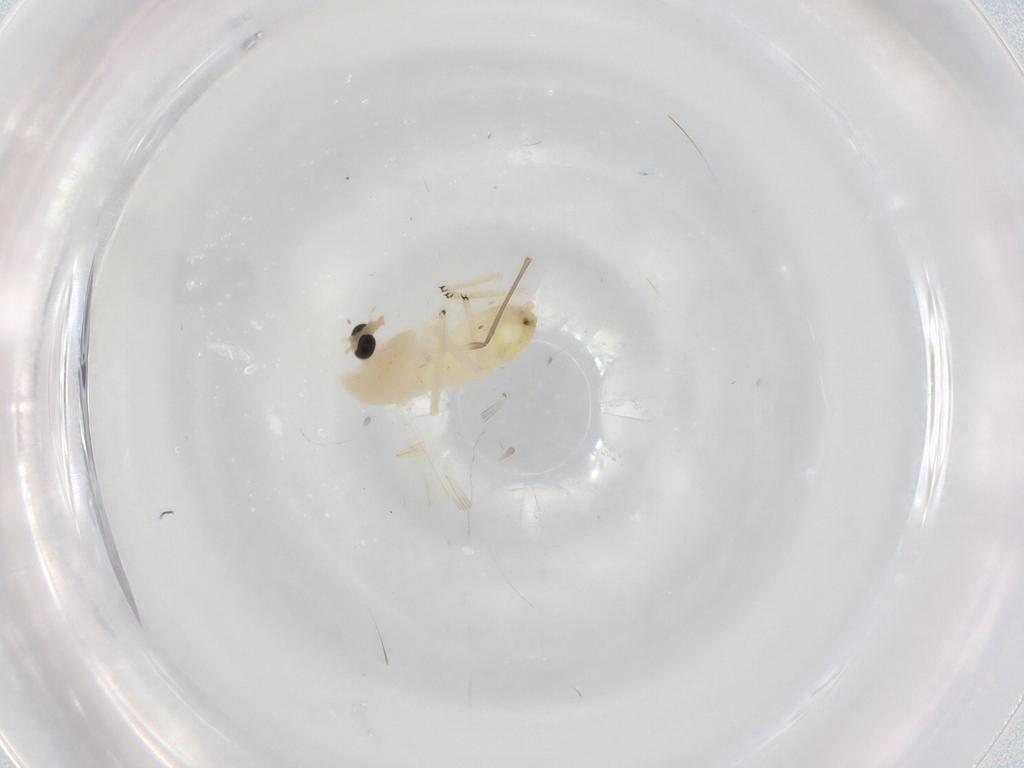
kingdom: Animalia
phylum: Arthropoda
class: Insecta
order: Diptera
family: Chironomidae
